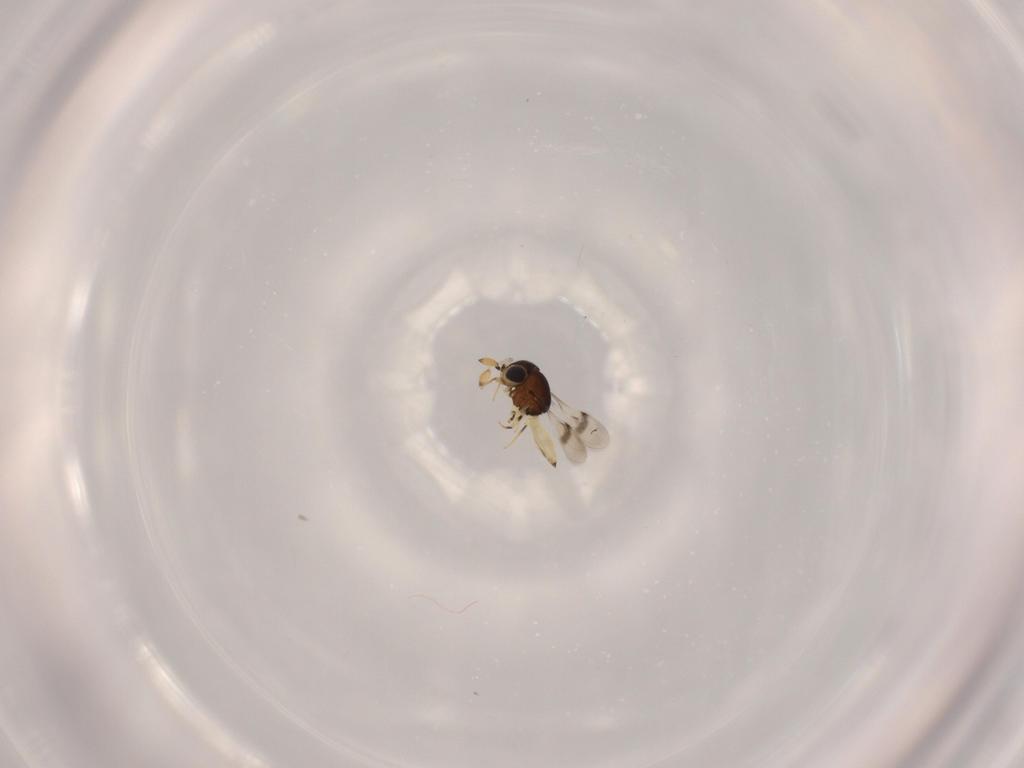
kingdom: Animalia
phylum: Arthropoda
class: Insecta
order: Hymenoptera
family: Scelionidae
